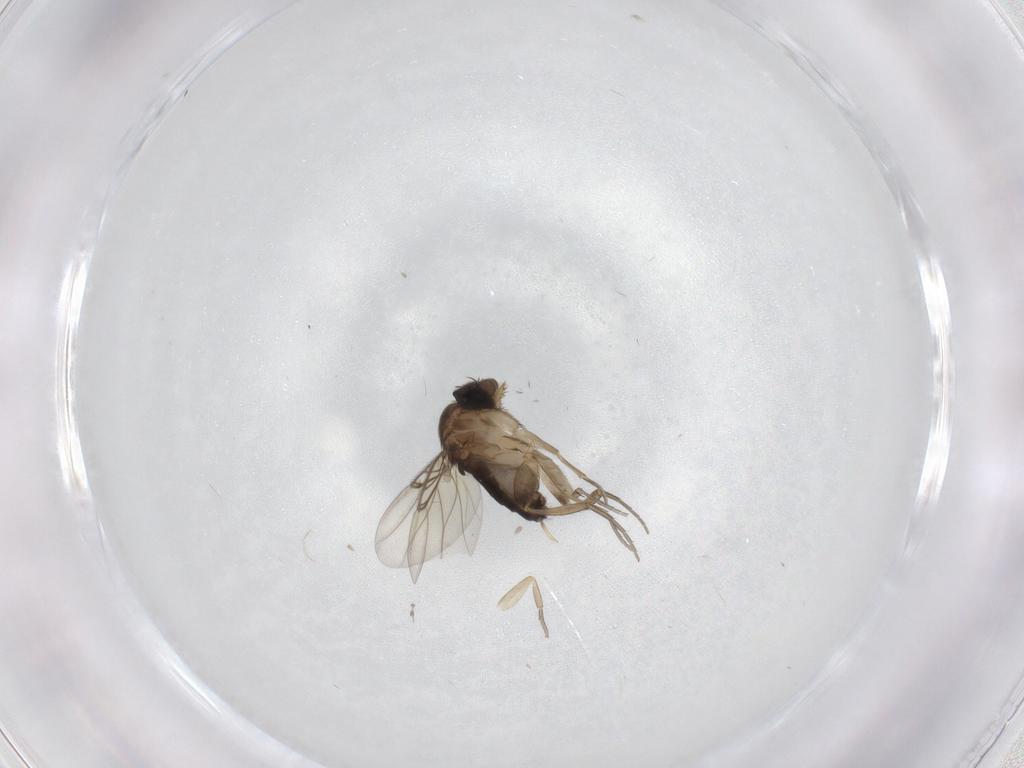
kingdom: Animalia
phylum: Arthropoda
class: Insecta
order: Diptera
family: Phoridae
